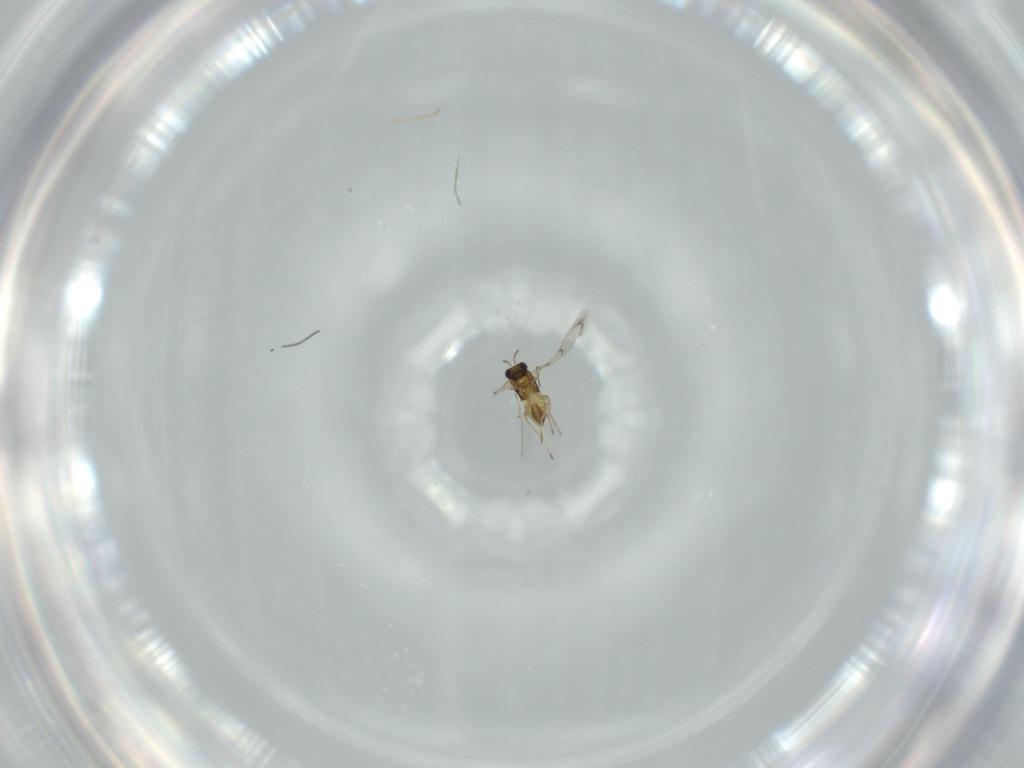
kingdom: Animalia
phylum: Arthropoda
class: Insecta
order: Hymenoptera
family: Trichogrammatidae
